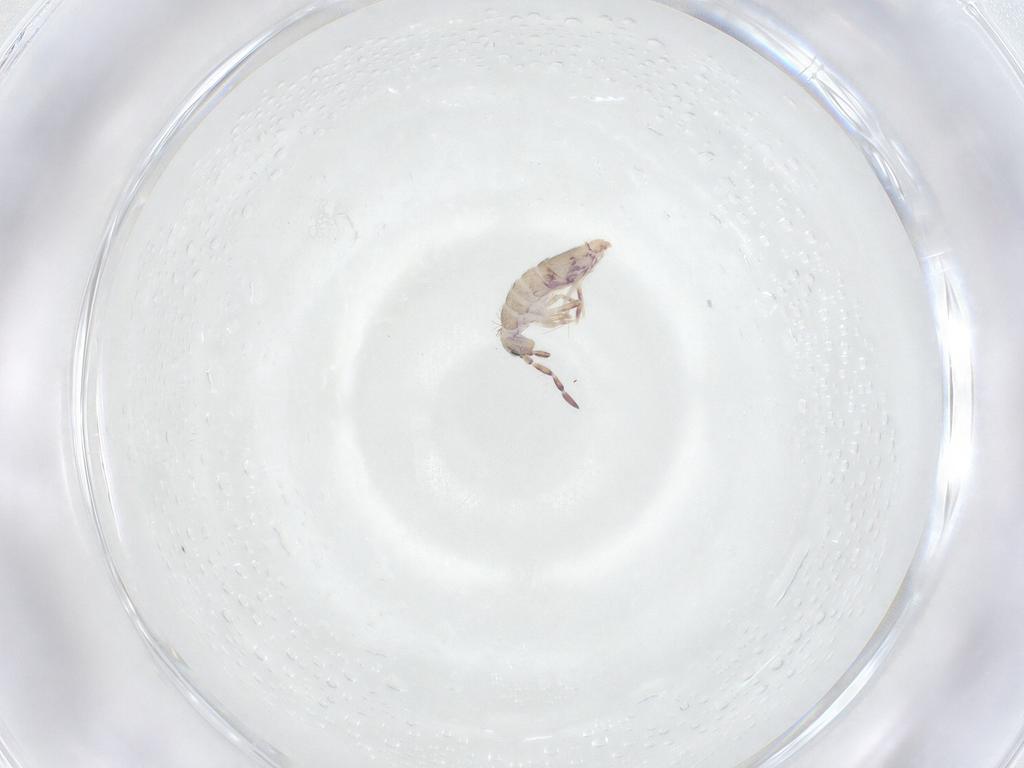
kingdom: Animalia
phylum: Arthropoda
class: Collembola
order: Entomobryomorpha
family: Entomobryidae
